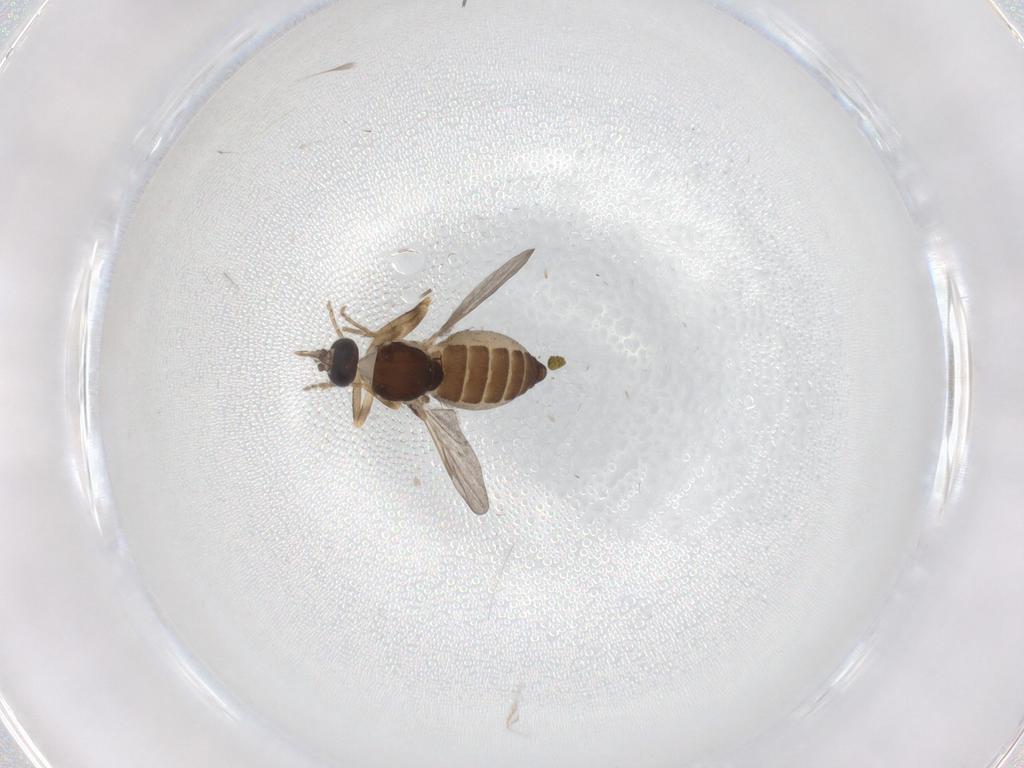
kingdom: Animalia
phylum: Arthropoda
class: Insecta
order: Diptera
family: Ceratopogonidae
